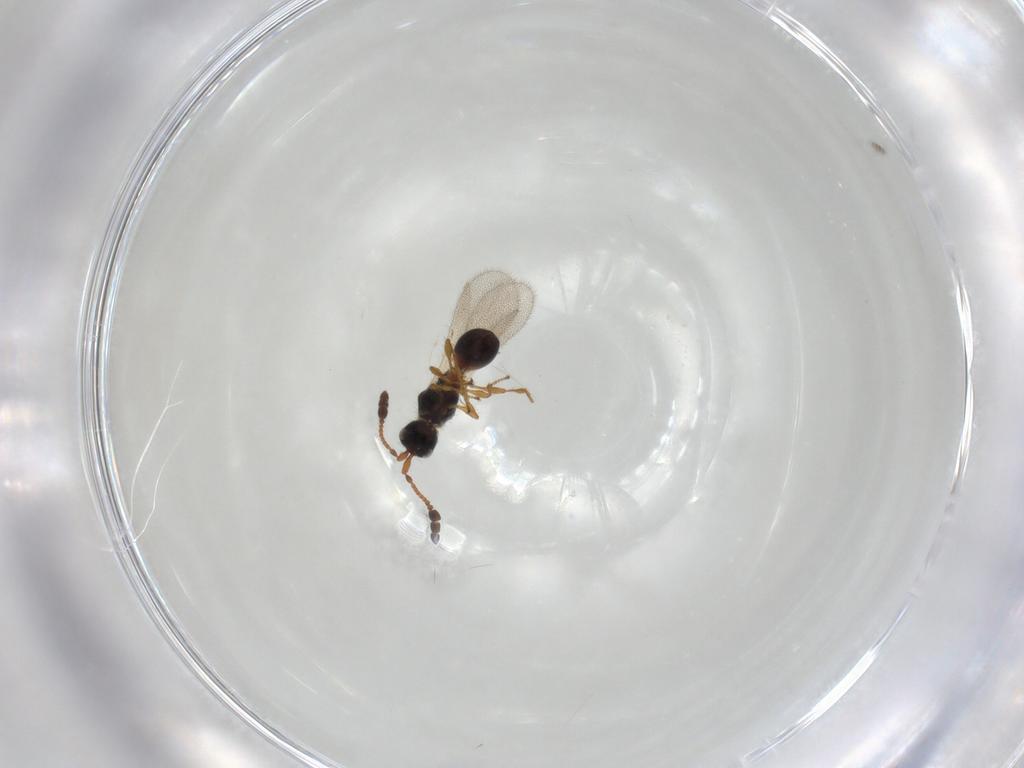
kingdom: Animalia
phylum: Arthropoda
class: Insecta
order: Hymenoptera
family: Diapriidae
